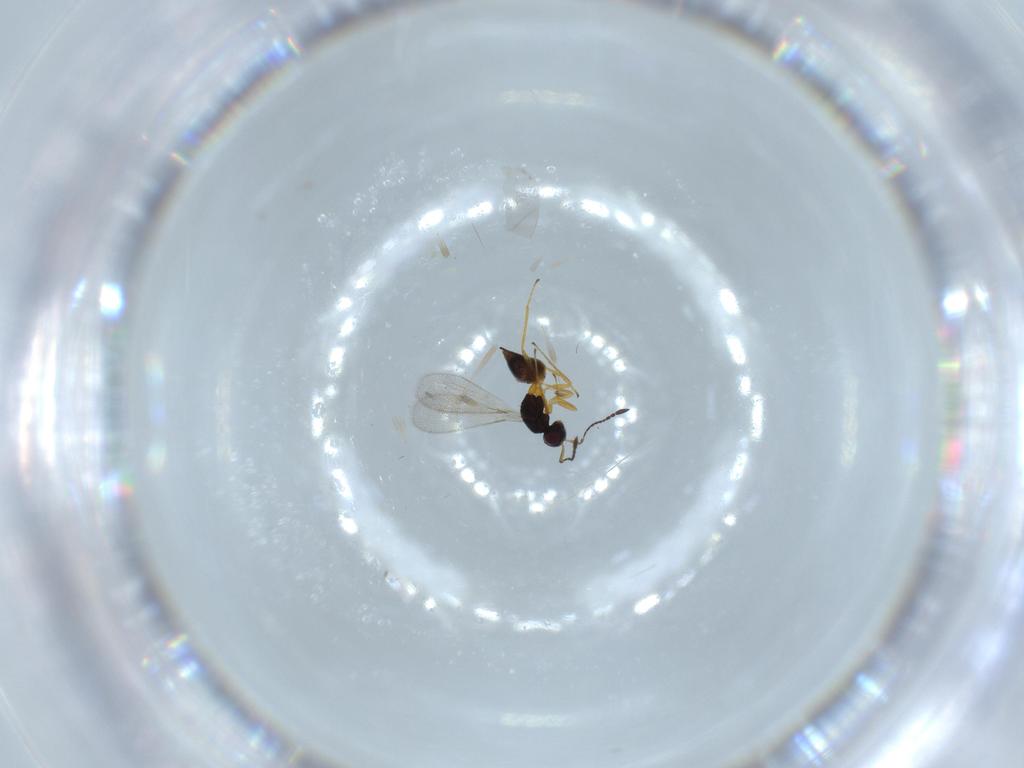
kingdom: Animalia
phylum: Arthropoda
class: Insecta
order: Hymenoptera
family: Mymaridae
